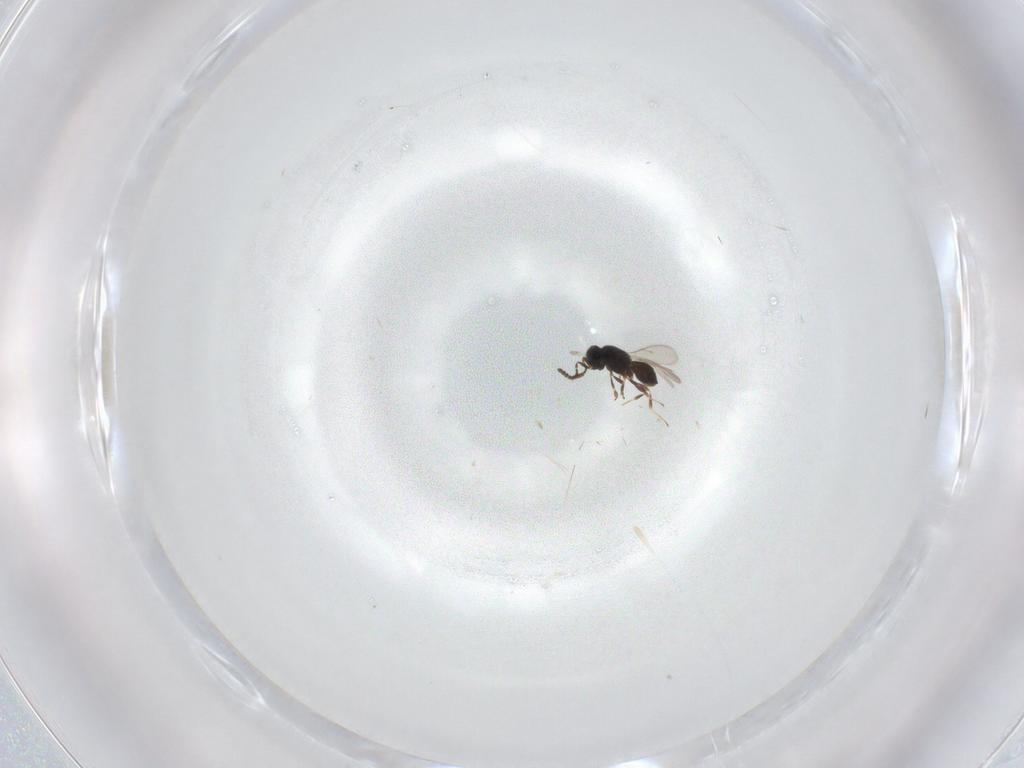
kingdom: Animalia
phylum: Arthropoda
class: Insecta
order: Hymenoptera
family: Scelionidae
